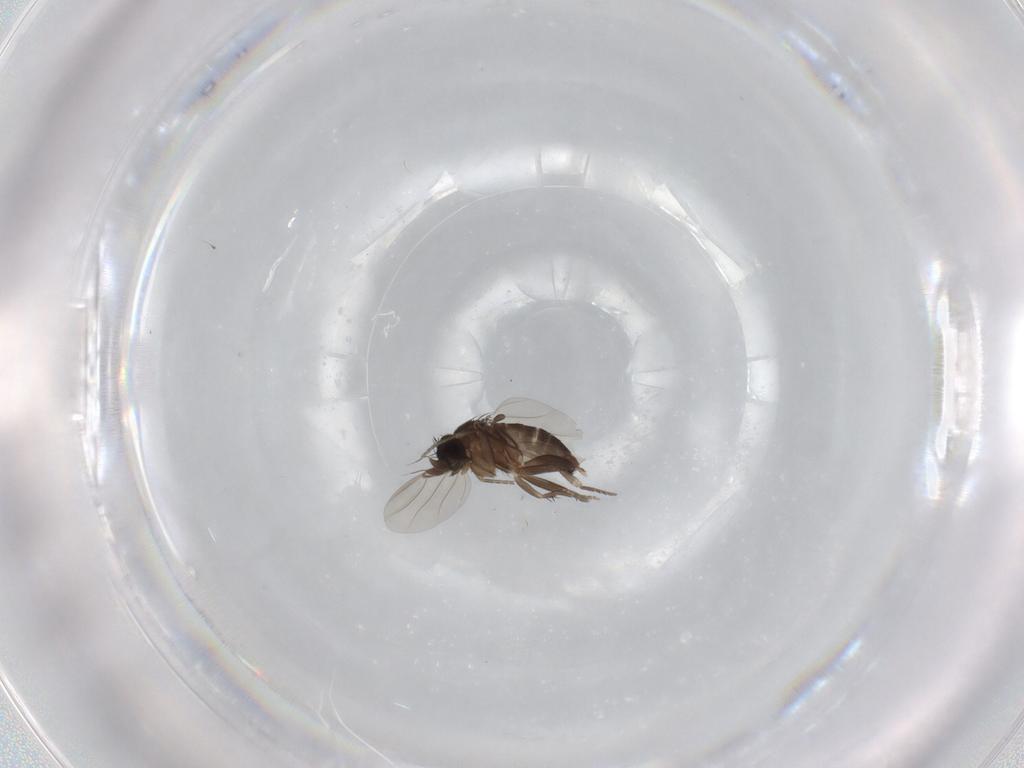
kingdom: Animalia
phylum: Arthropoda
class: Insecta
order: Diptera
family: Phoridae
